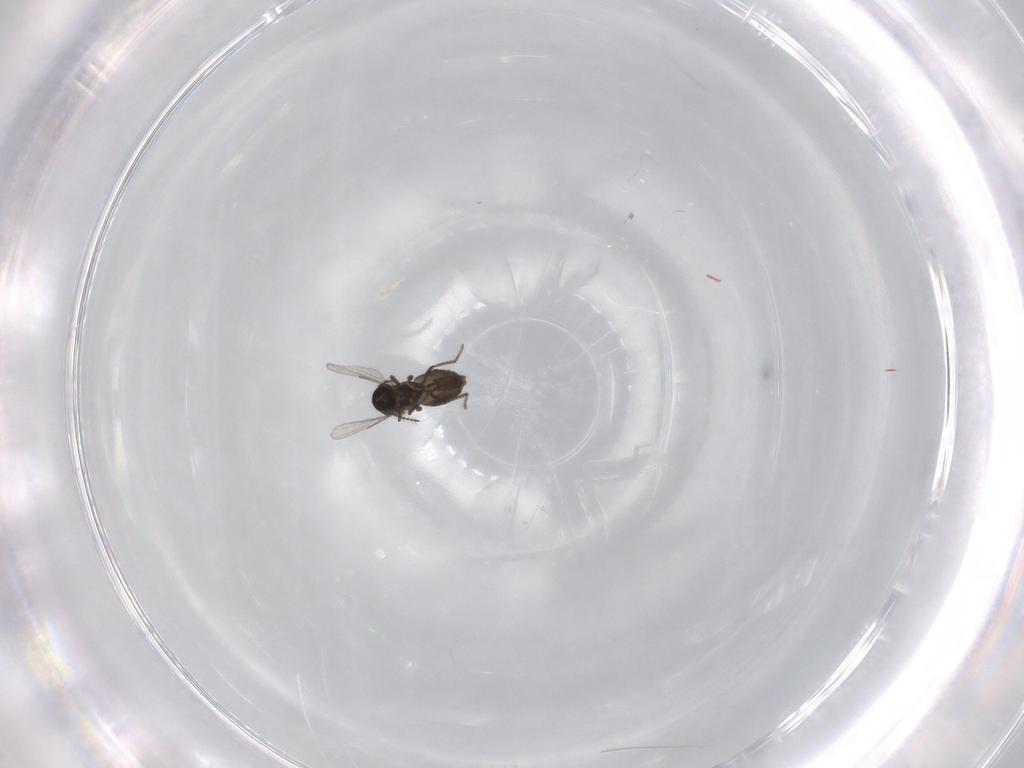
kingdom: Animalia
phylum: Arthropoda
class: Insecta
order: Diptera
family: Ceratopogonidae
